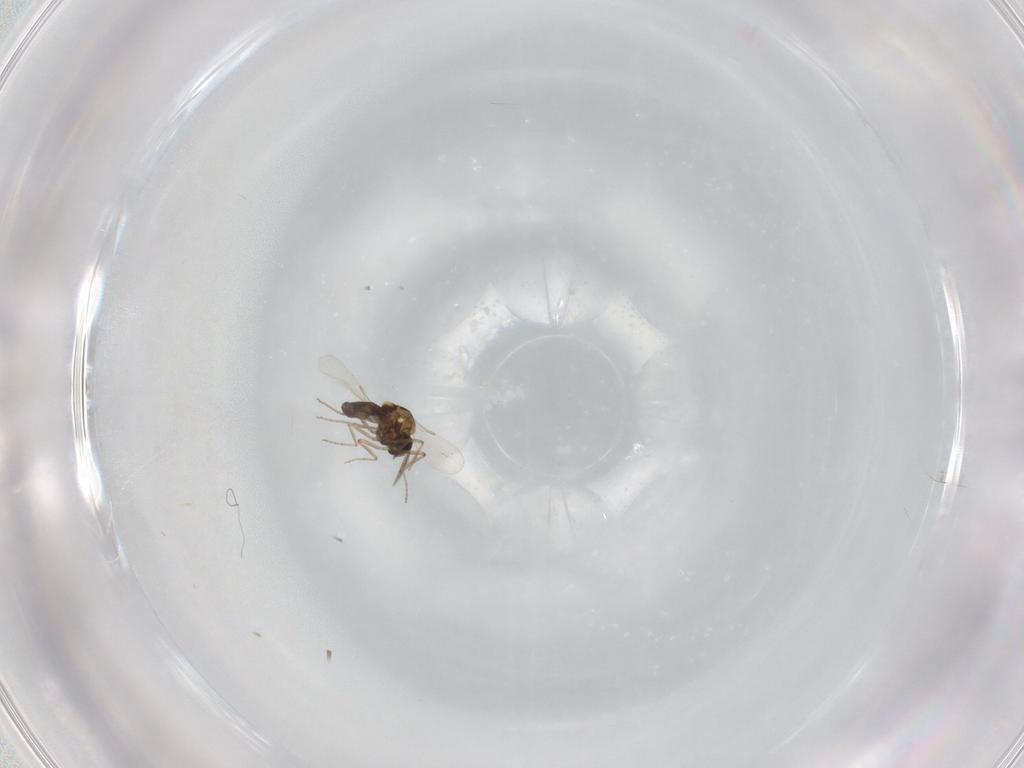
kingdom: Animalia
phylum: Arthropoda
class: Insecta
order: Diptera
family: Ceratopogonidae
